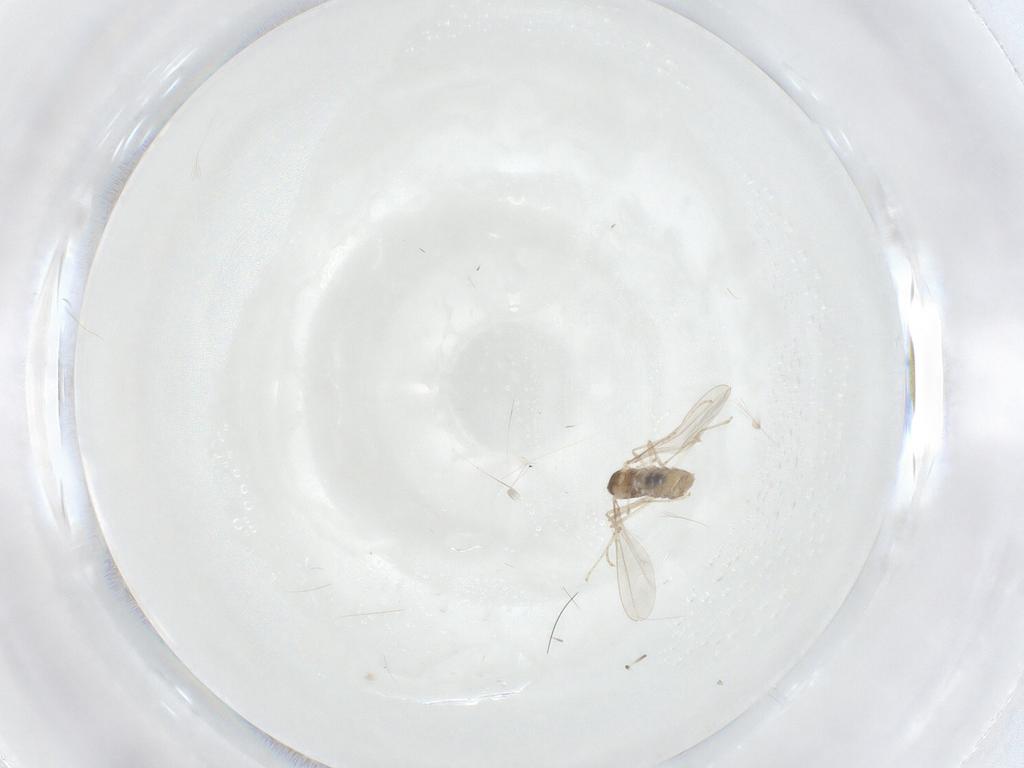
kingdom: Animalia
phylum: Arthropoda
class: Insecta
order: Diptera
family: Cecidomyiidae
